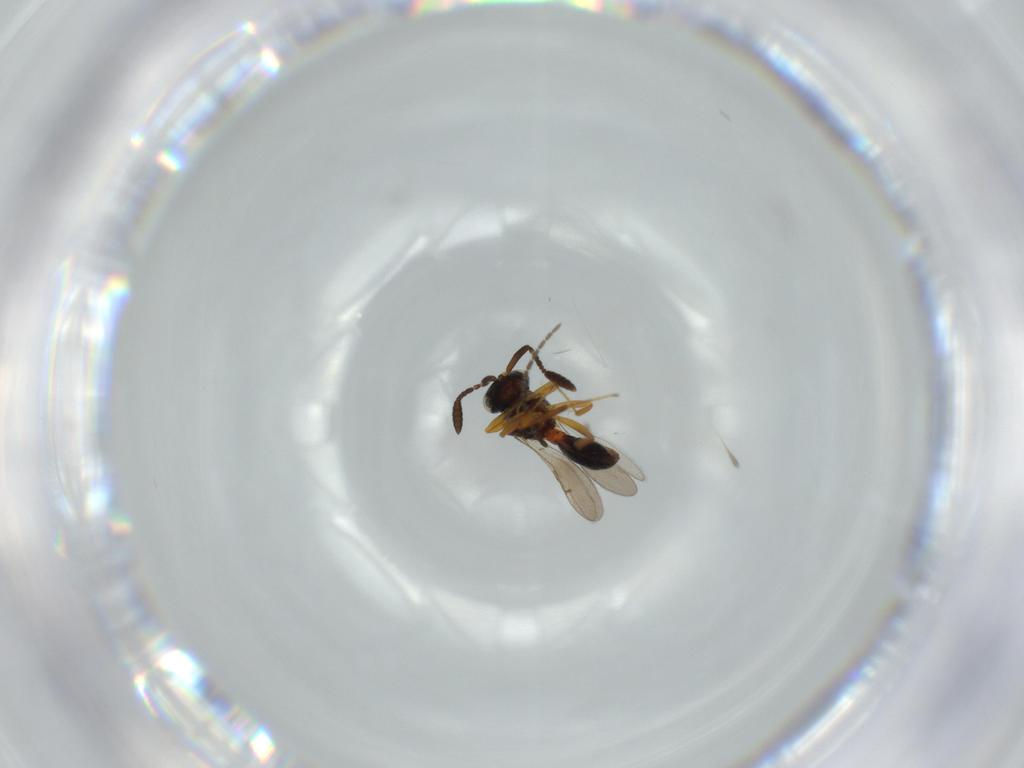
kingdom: Animalia
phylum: Arthropoda
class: Insecta
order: Hymenoptera
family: Scelionidae
